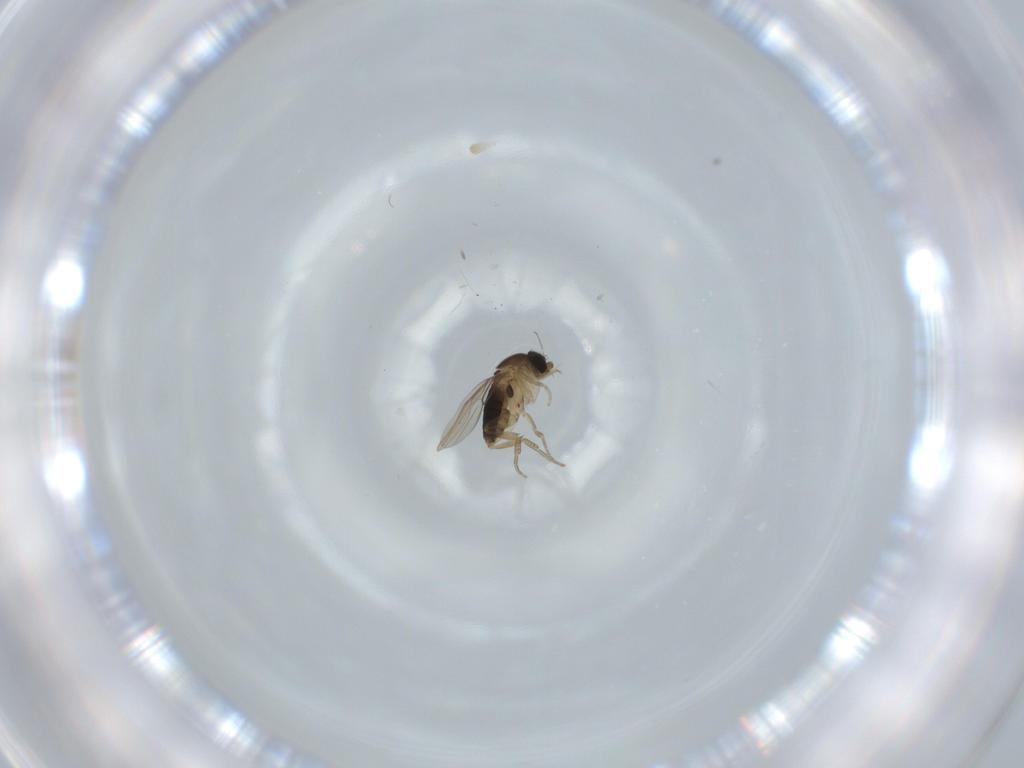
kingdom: Animalia
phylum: Arthropoda
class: Insecta
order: Diptera
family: Phoridae
